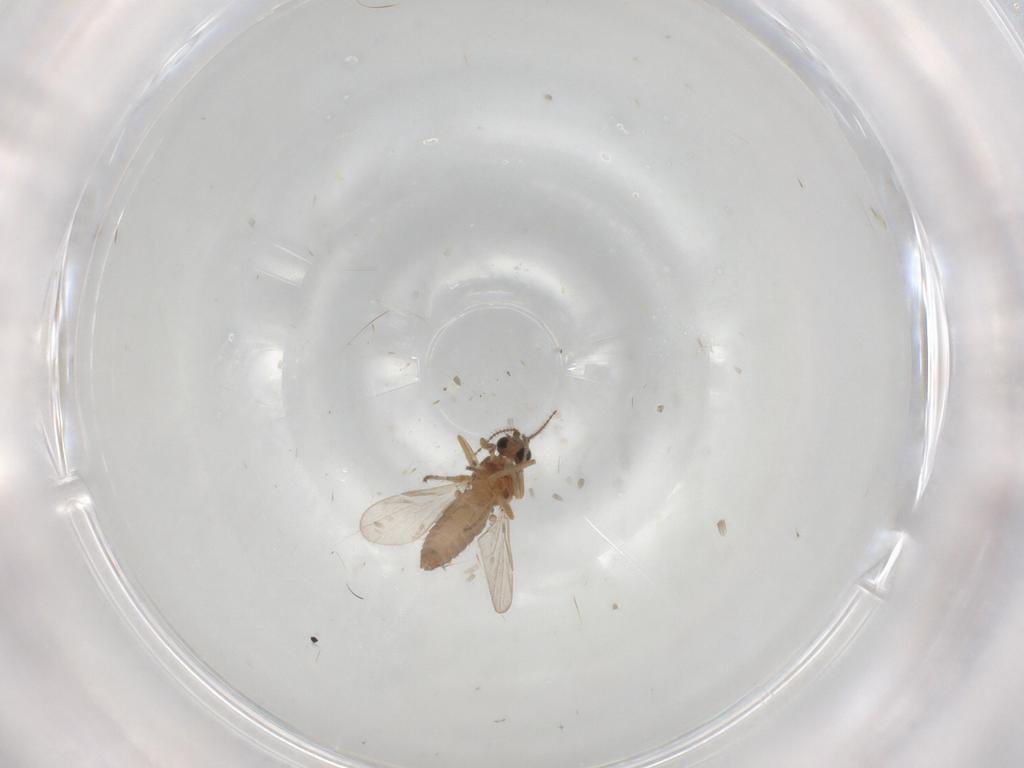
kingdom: Animalia
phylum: Arthropoda
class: Insecta
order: Diptera
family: Ceratopogonidae
